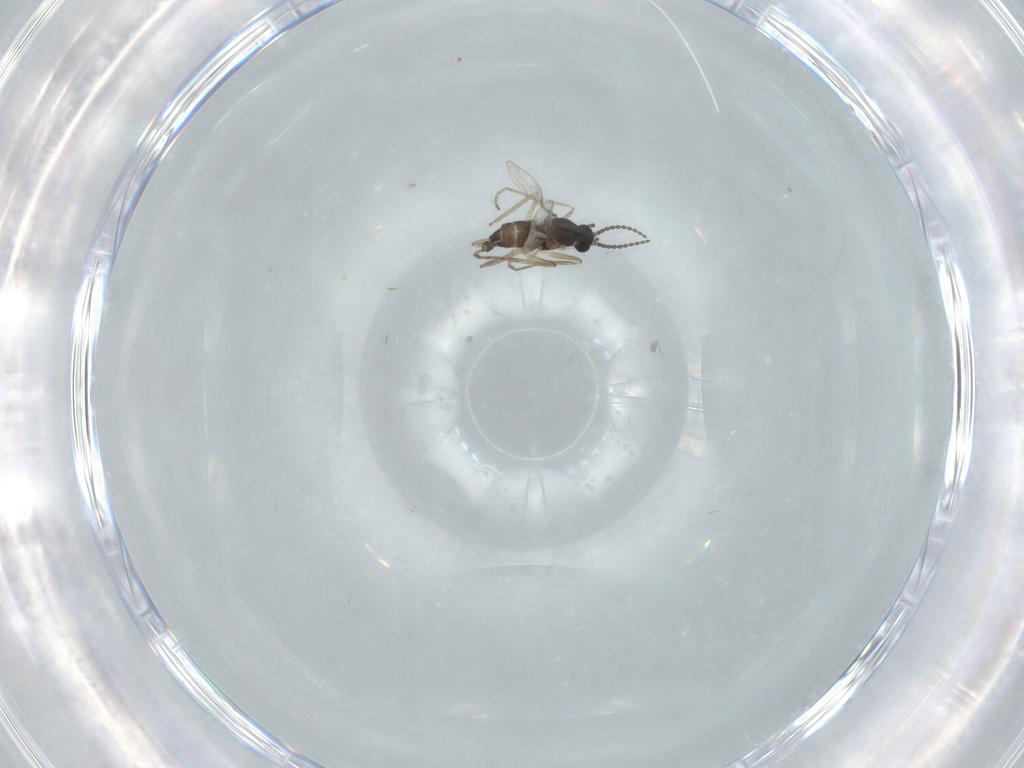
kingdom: Animalia
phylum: Arthropoda
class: Insecta
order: Diptera
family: Cecidomyiidae
